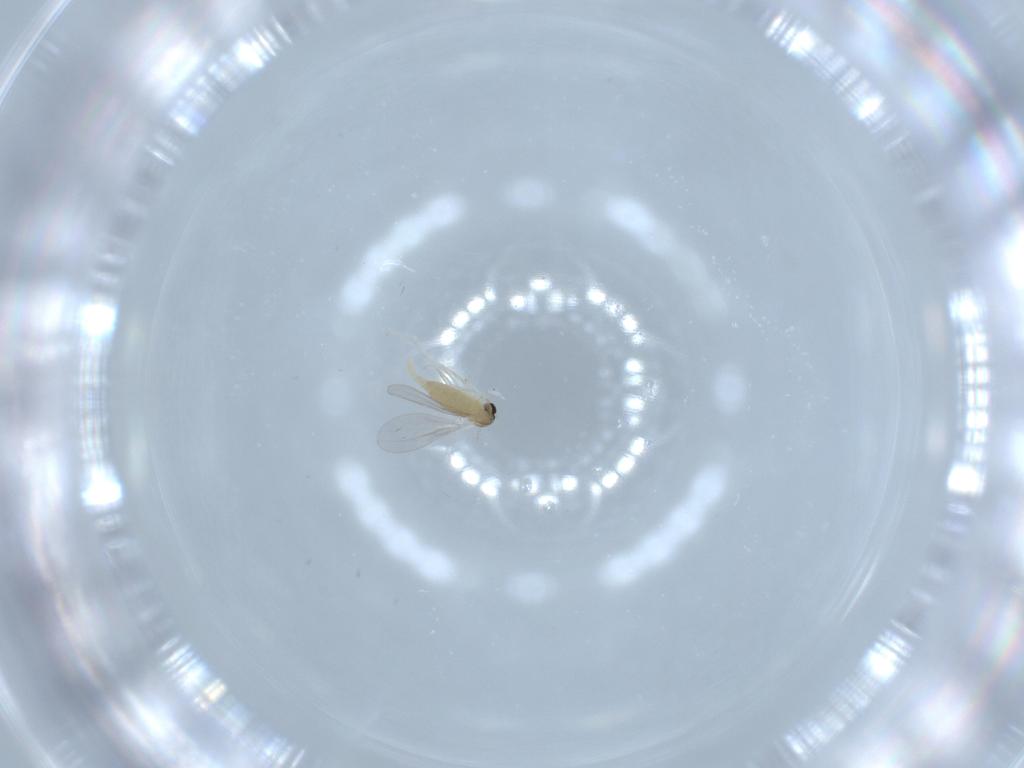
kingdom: Animalia
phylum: Arthropoda
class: Insecta
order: Diptera
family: Cecidomyiidae
